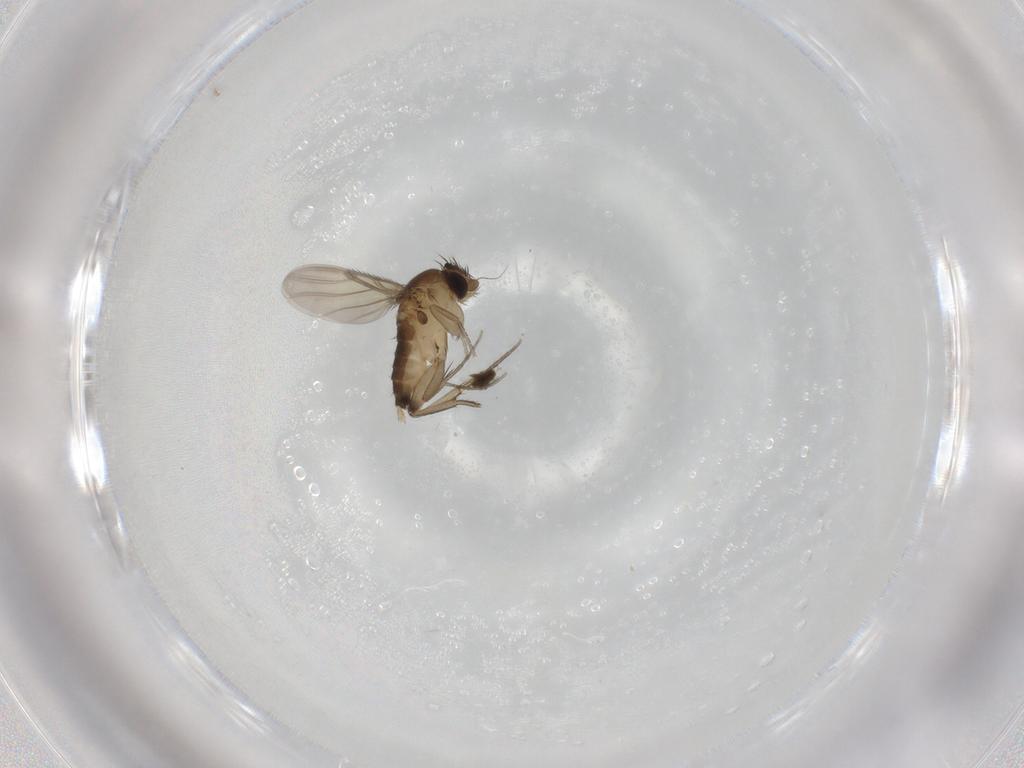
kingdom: Animalia
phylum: Arthropoda
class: Insecta
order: Diptera
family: Phoridae
